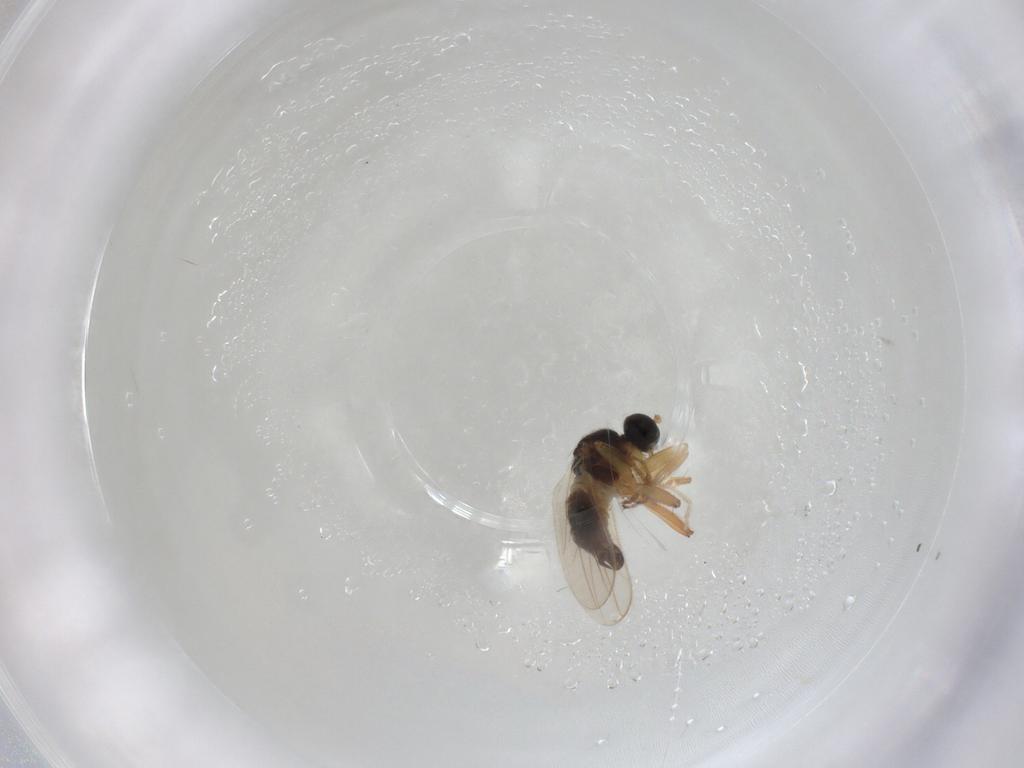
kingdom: Animalia
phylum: Arthropoda
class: Insecta
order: Diptera
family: Hybotidae
